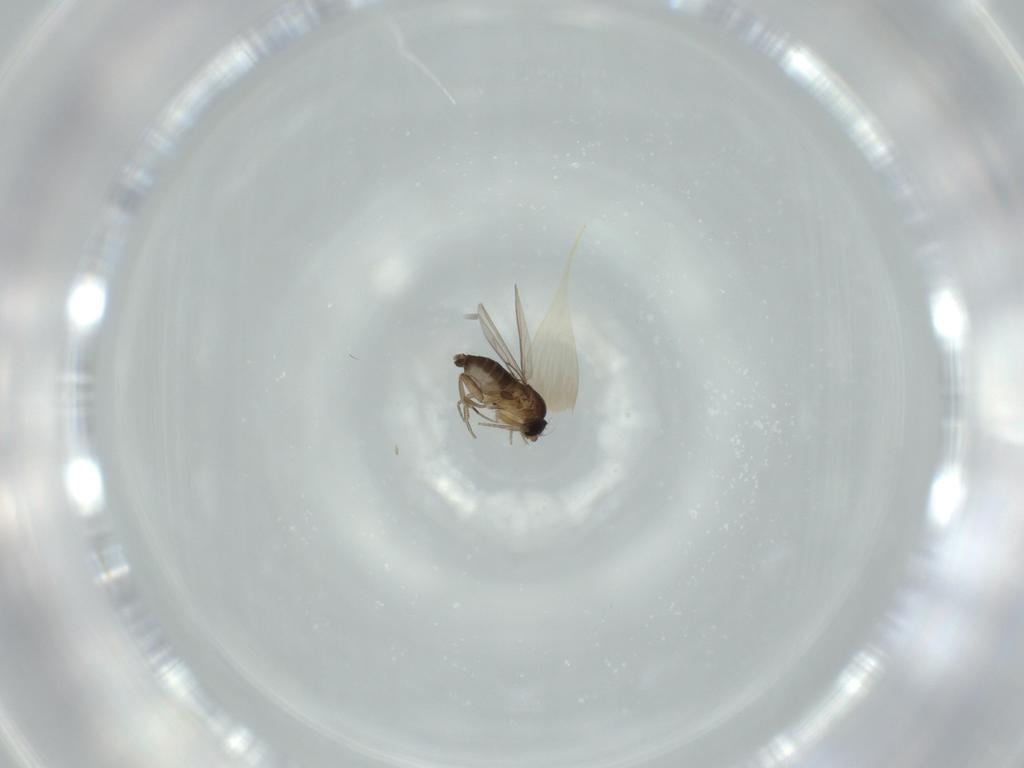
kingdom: Animalia
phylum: Arthropoda
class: Insecta
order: Diptera
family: Phoridae
